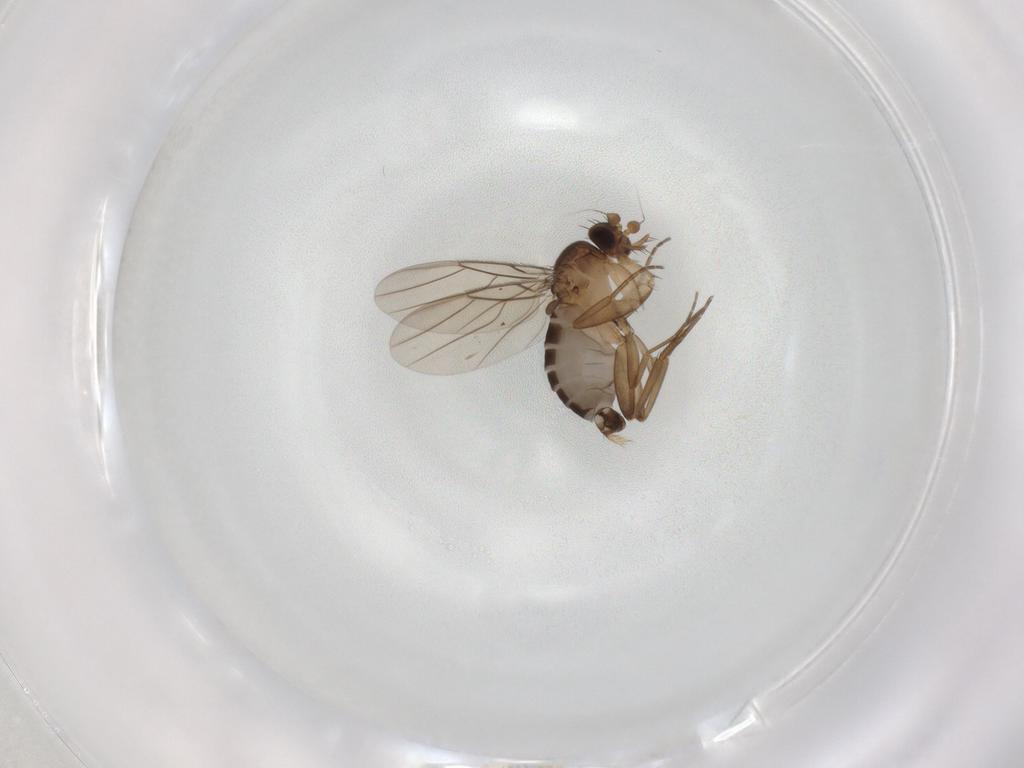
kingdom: Animalia
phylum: Arthropoda
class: Insecta
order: Diptera
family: Phoridae
